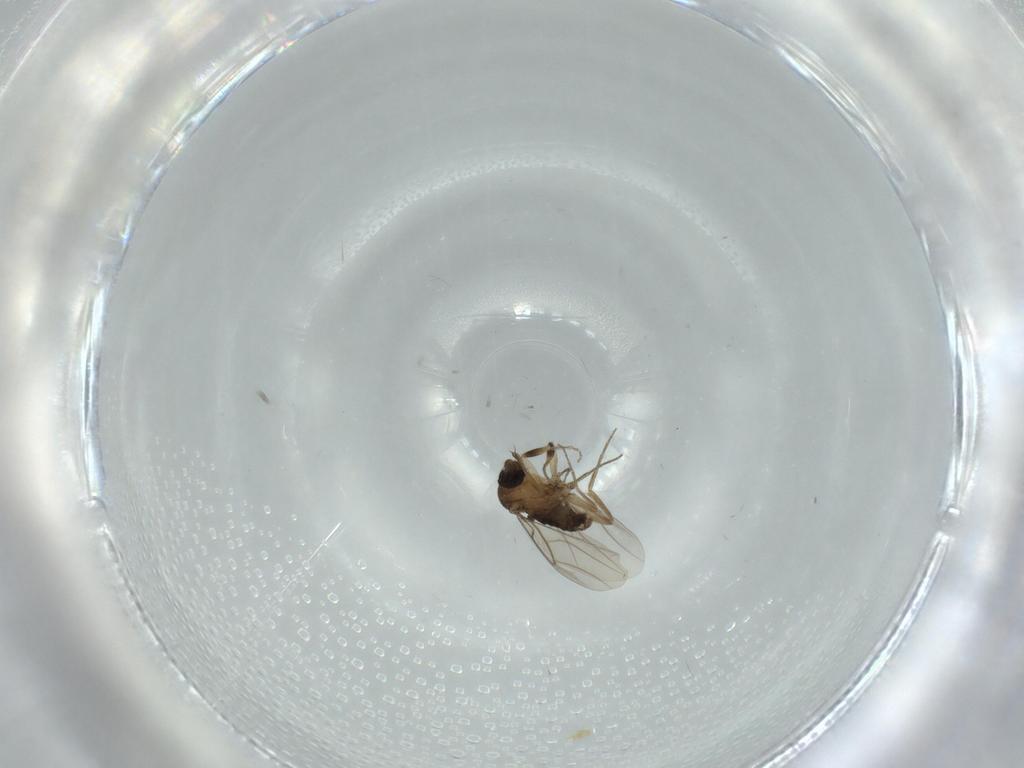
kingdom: Animalia
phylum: Arthropoda
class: Insecta
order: Diptera
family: Phoridae
